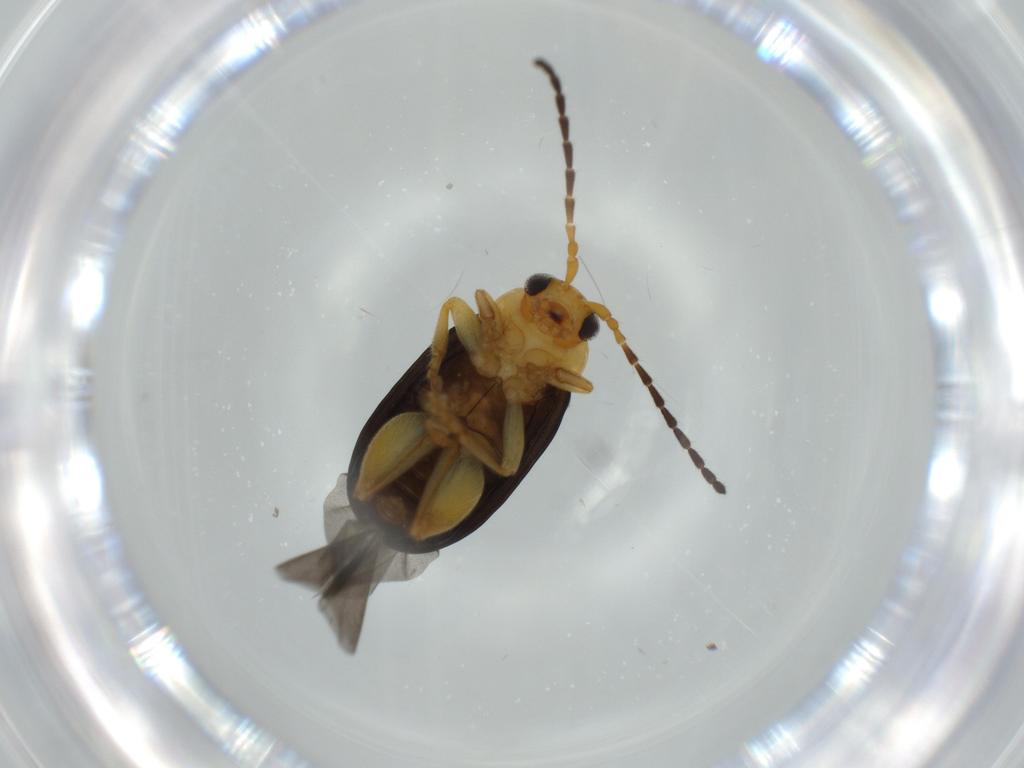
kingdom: Animalia
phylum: Arthropoda
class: Insecta
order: Coleoptera
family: Chrysomelidae
